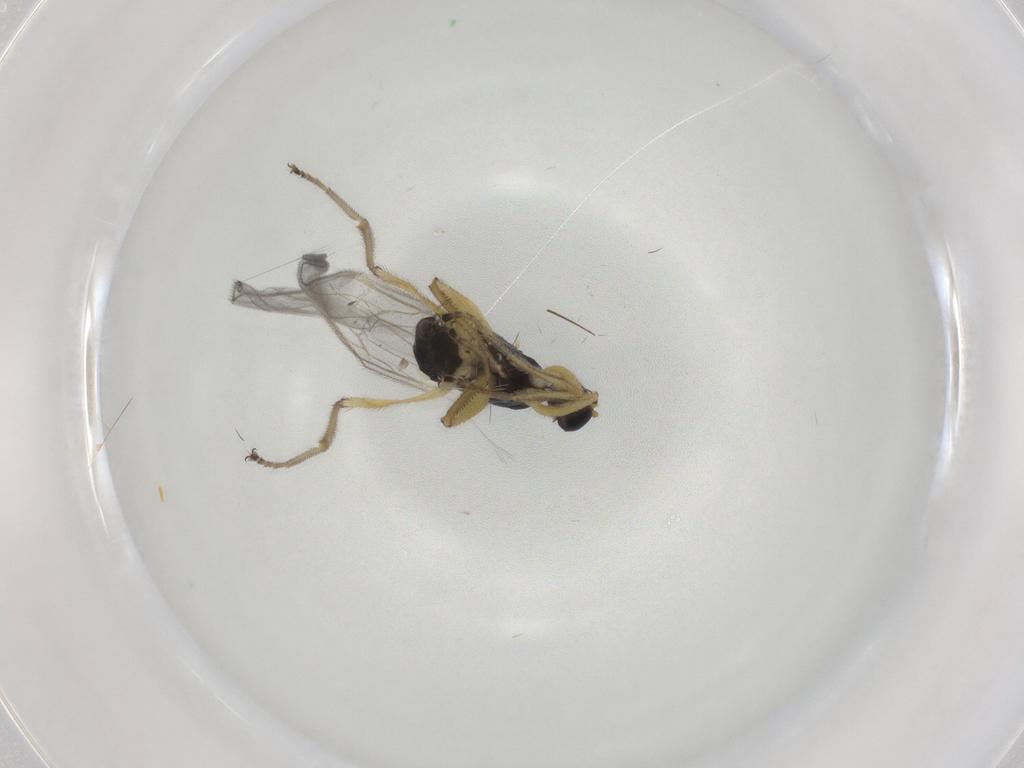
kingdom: Animalia
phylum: Arthropoda
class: Insecta
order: Diptera
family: Hybotidae
